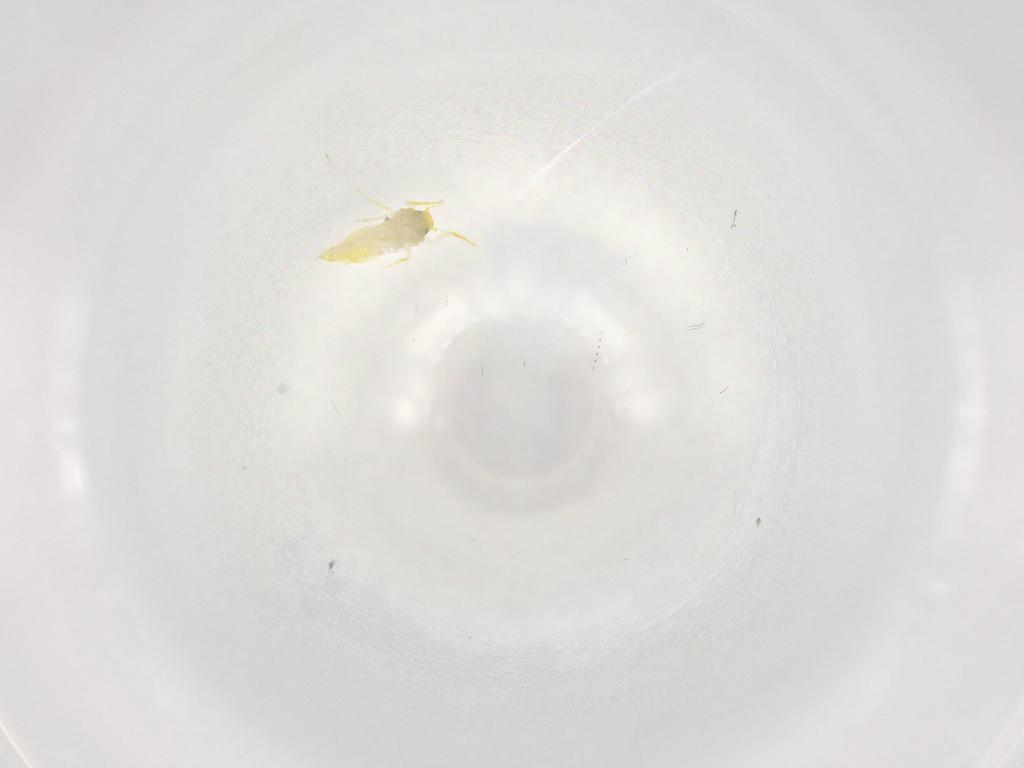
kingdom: Animalia
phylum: Arthropoda
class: Insecta
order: Hemiptera
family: Aleyrodidae
